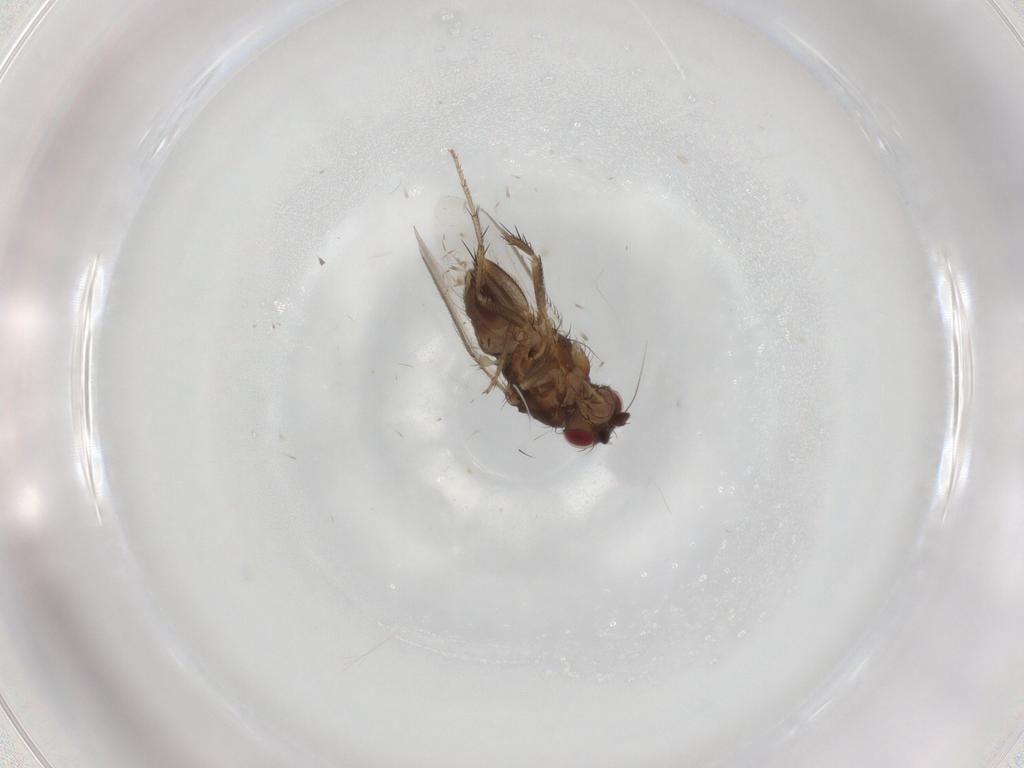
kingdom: Animalia
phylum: Arthropoda
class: Insecta
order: Diptera
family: Sphaeroceridae
